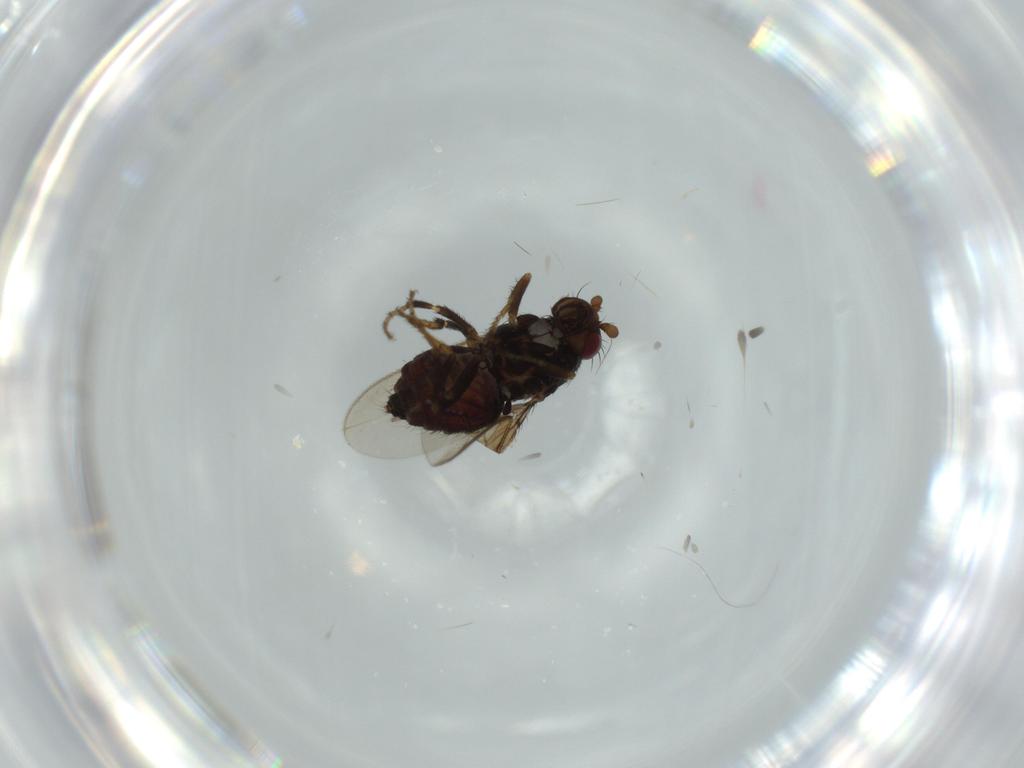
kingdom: Animalia
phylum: Arthropoda
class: Insecta
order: Diptera
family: Sphaeroceridae
